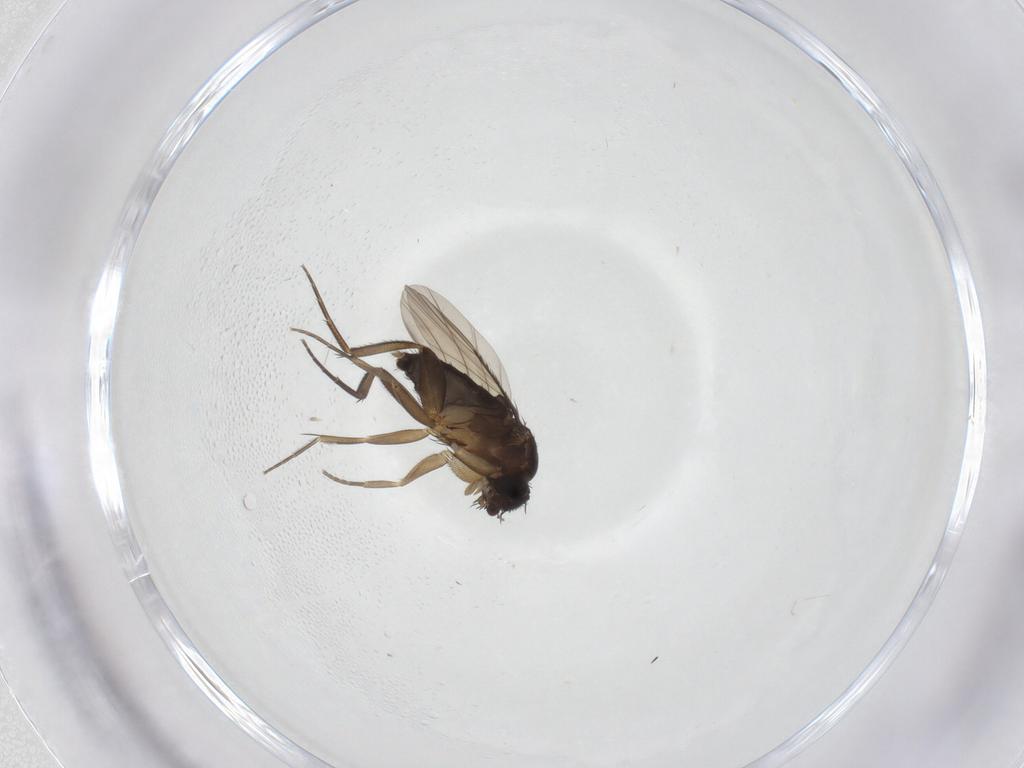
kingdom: Animalia
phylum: Arthropoda
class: Insecta
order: Diptera
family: Phoridae
